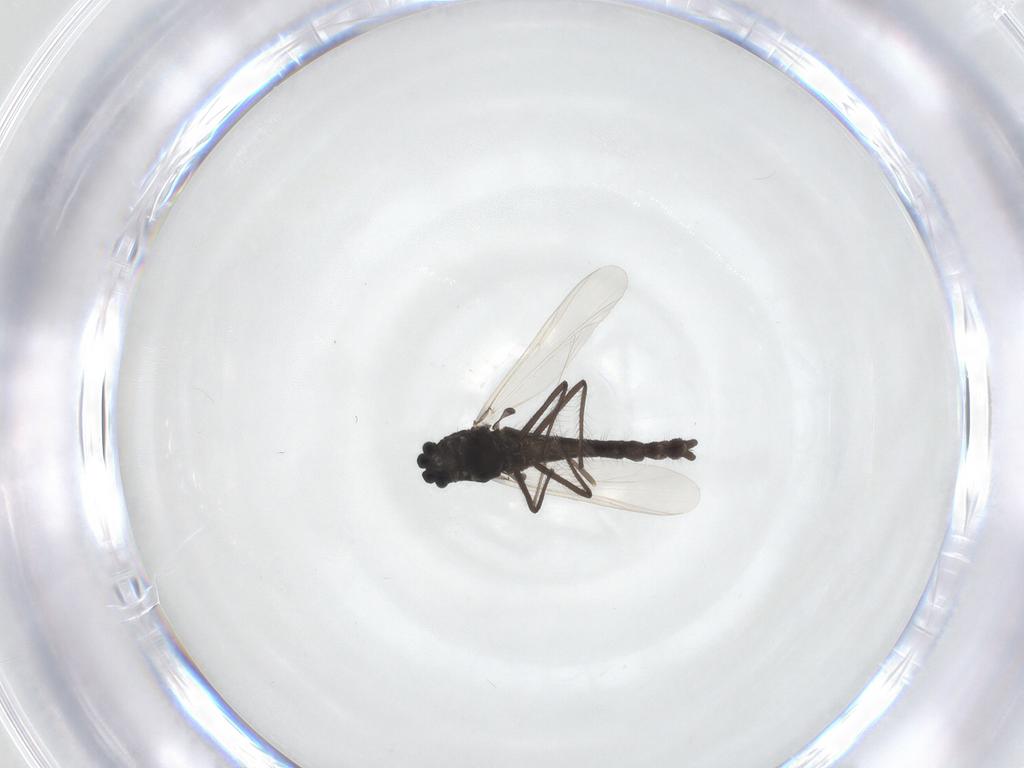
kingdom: Animalia
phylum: Arthropoda
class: Insecta
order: Diptera
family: Chironomidae
